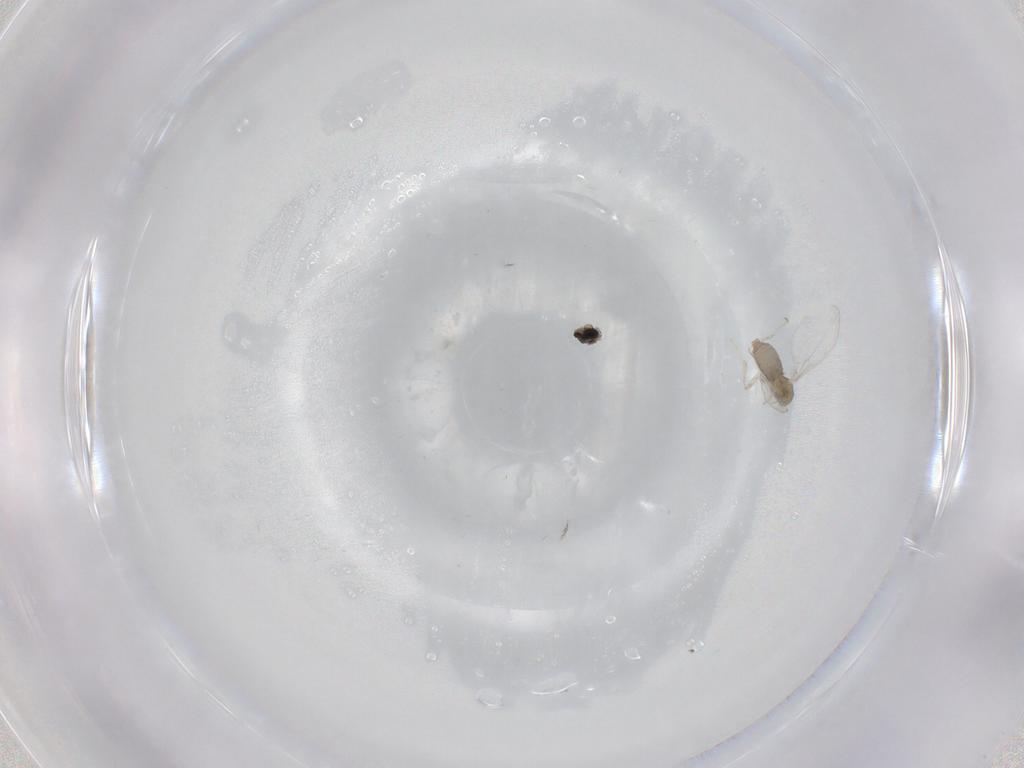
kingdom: Animalia
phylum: Arthropoda
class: Insecta
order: Diptera
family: Cecidomyiidae
